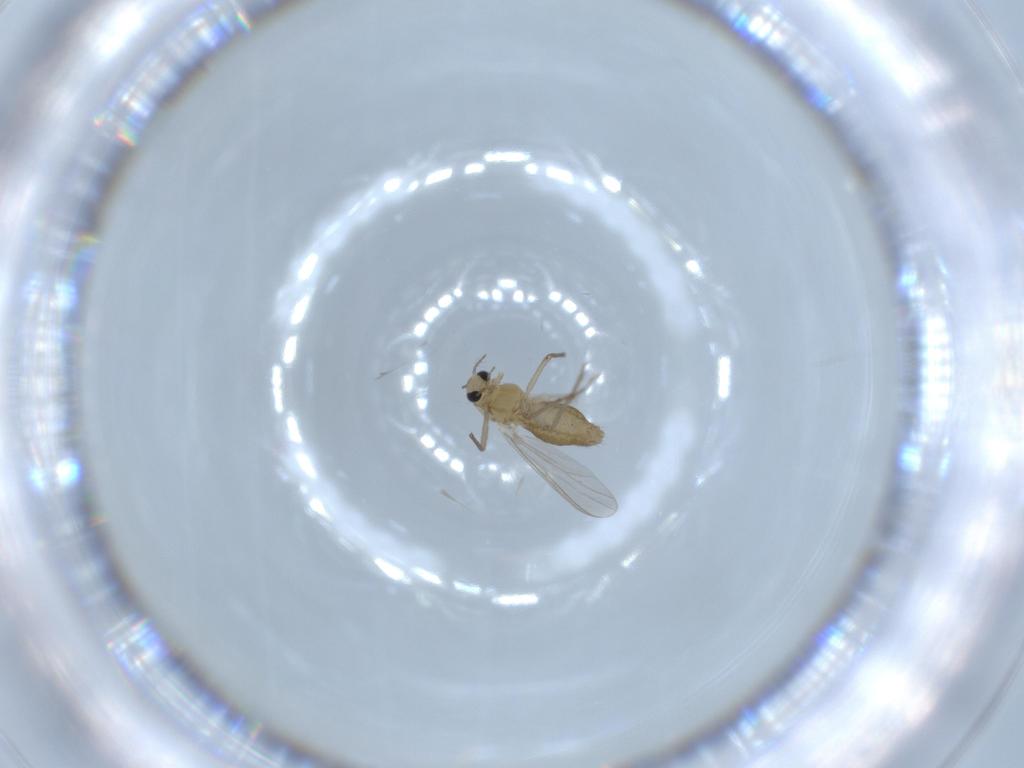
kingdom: Animalia
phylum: Arthropoda
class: Insecta
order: Diptera
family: Chironomidae
